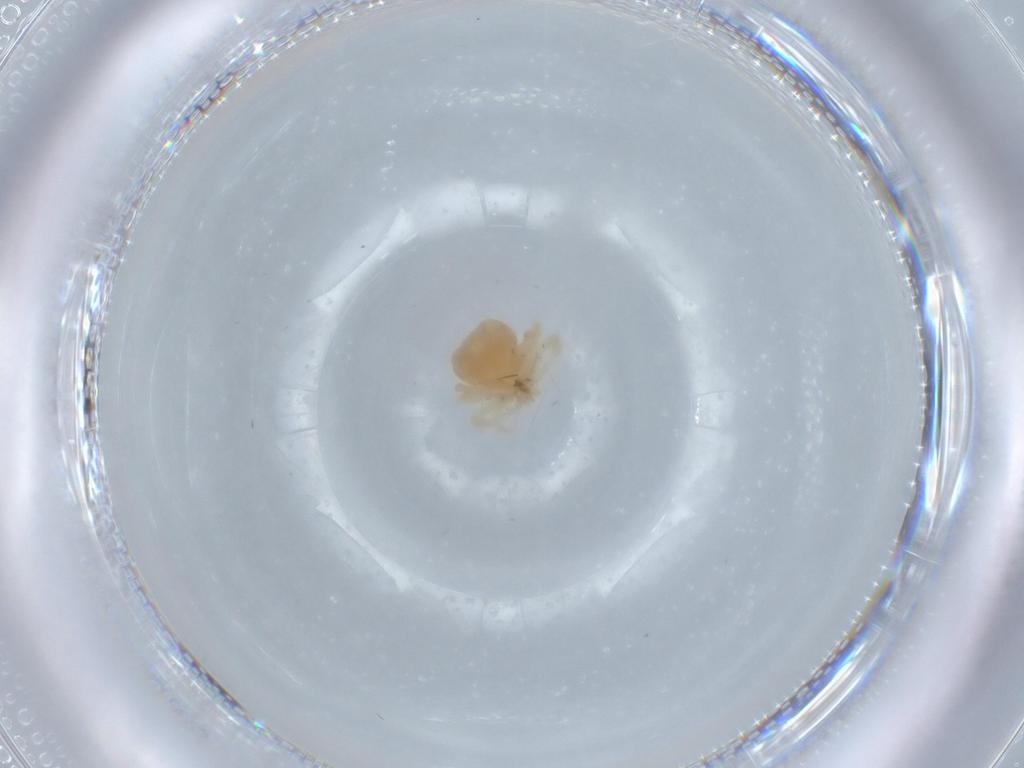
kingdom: Animalia
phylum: Arthropoda
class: Arachnida
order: Trombidiformes
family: Anystidae
